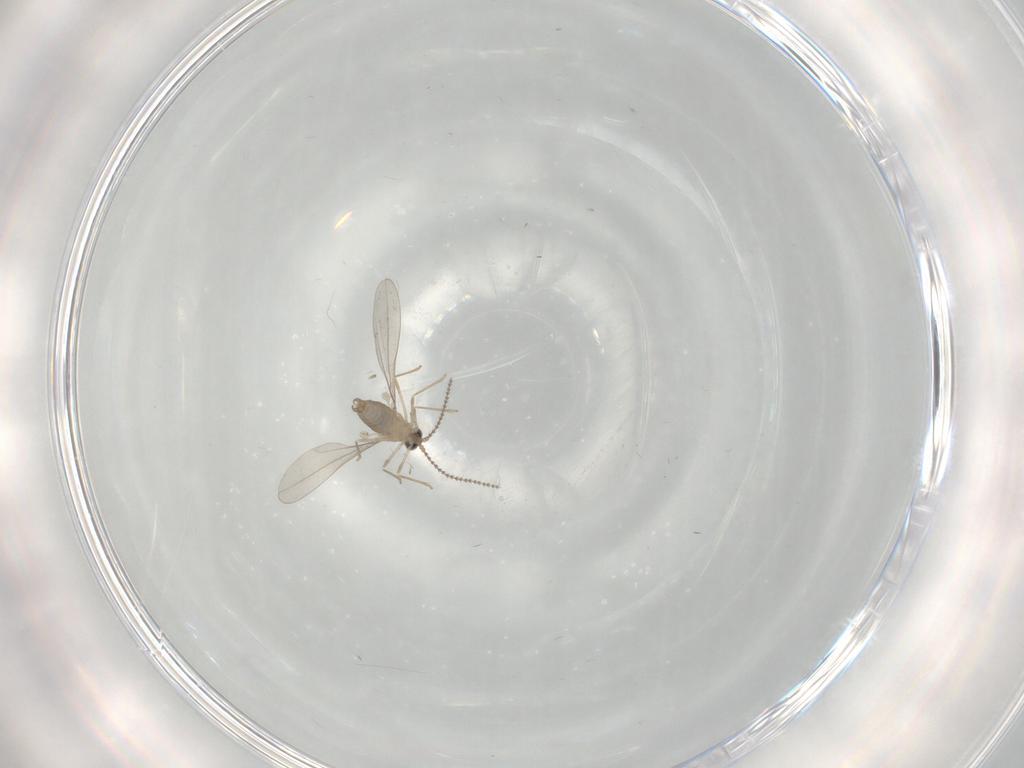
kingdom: Animalia
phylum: Arthropoda
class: Insecta
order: Diptera
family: Cecidomyiidae
